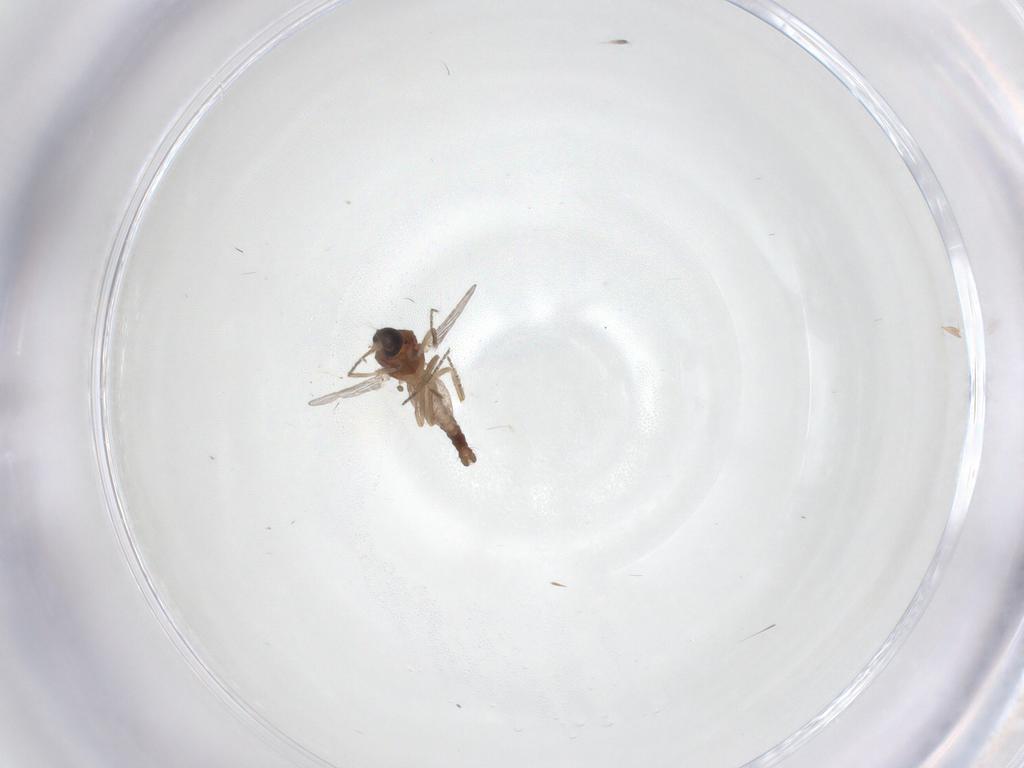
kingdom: Animalia
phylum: Arthropoda
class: Insecta
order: Diptera
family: Ceratopogonidae
